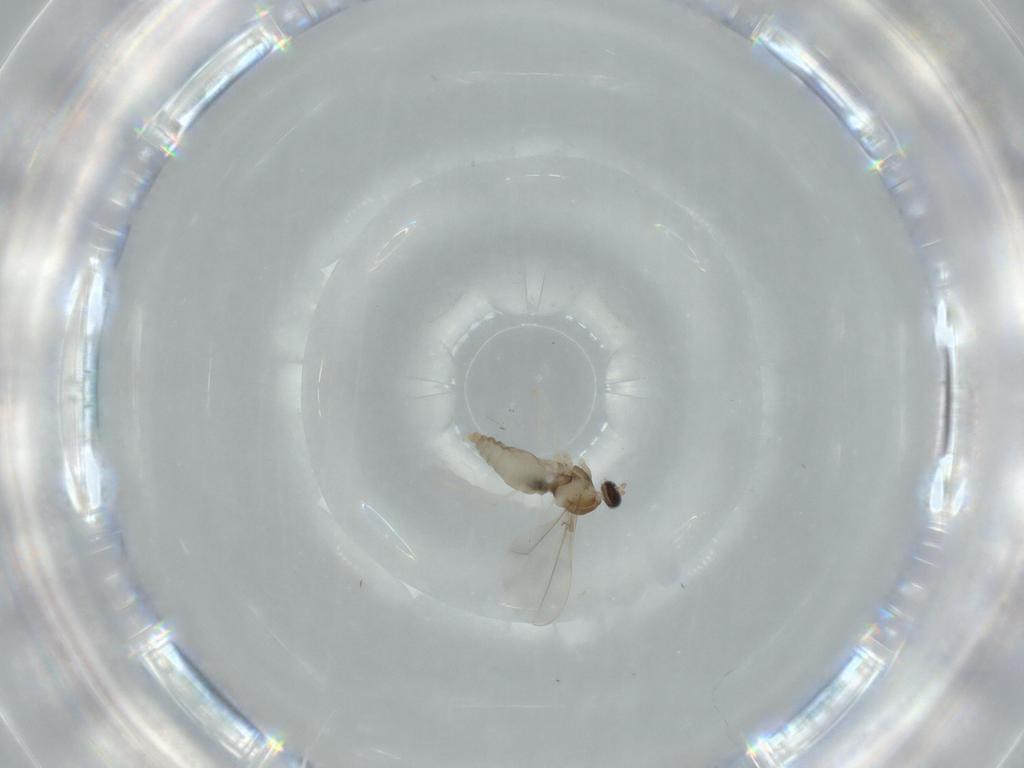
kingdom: Animalia
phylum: Arthropoda
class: Insecta
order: Diptera
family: Cecidomyiidae
